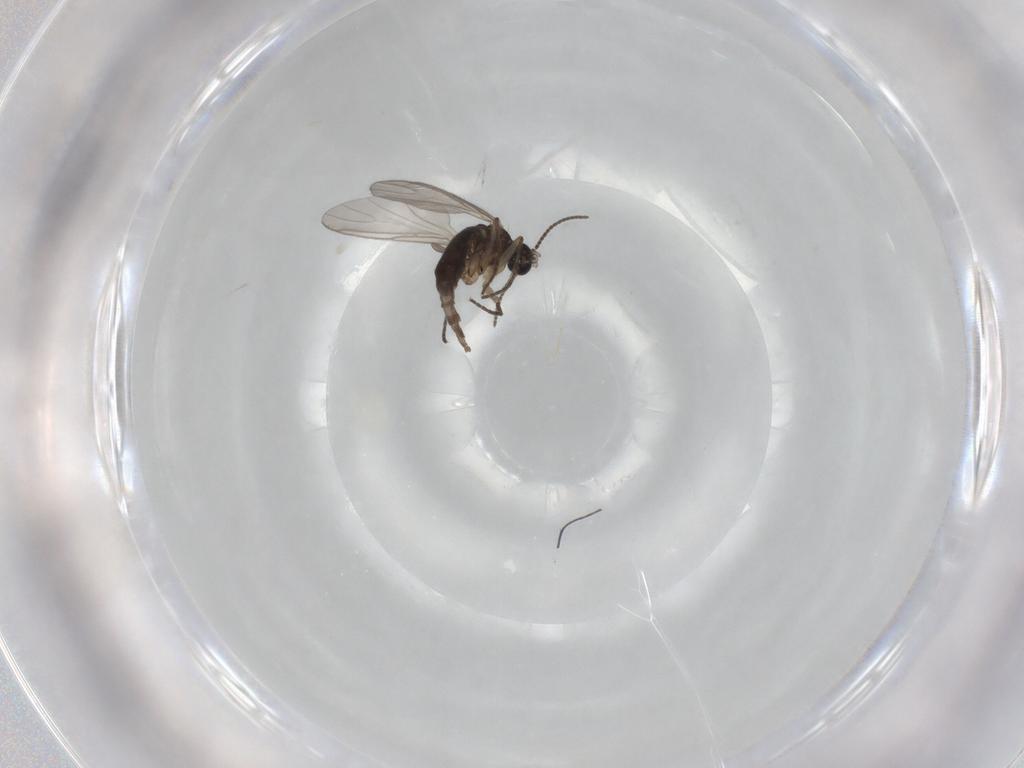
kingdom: Animalia
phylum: Arthropoda
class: Insecta
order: Diptera
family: Sciaridae
